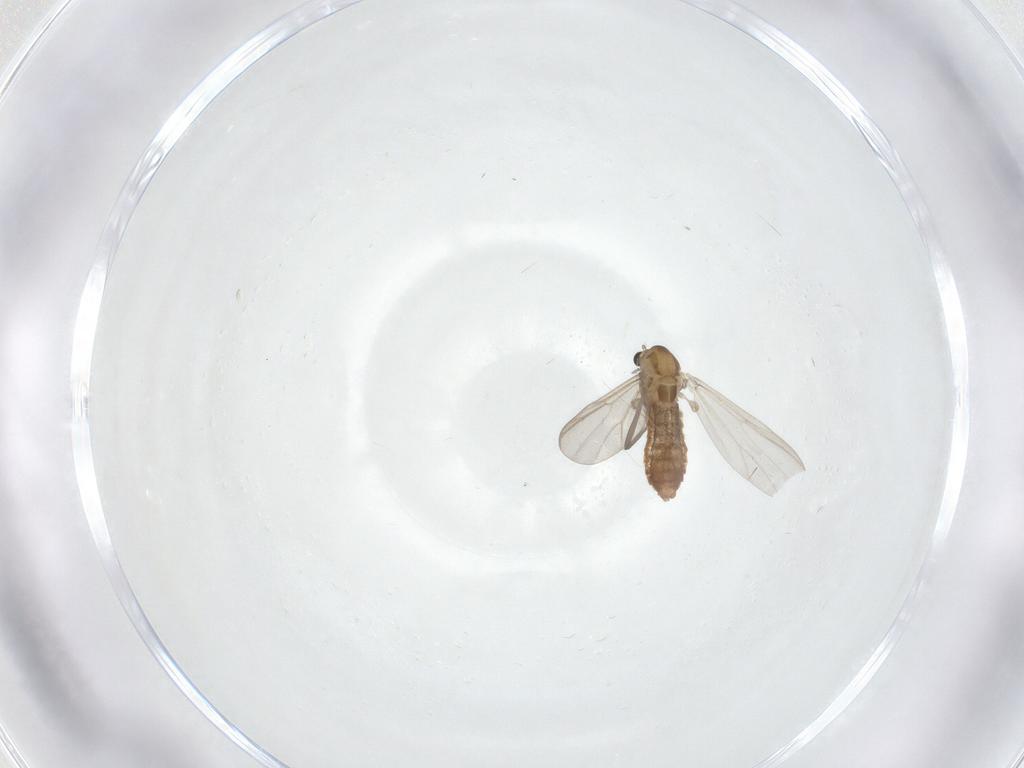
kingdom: Animalia
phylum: Arthropoda
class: Insecta
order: Diptera
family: Chironomidae
